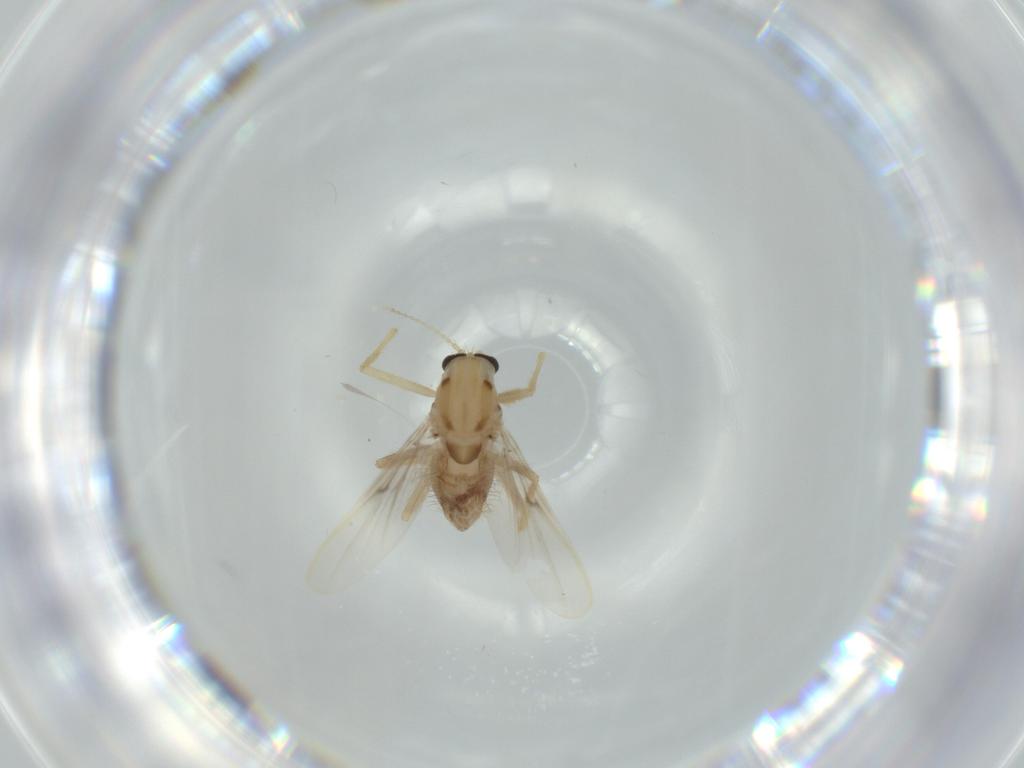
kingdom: Animalia
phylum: Arthropoda
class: Insecta
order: Diptera
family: Chironomidae
